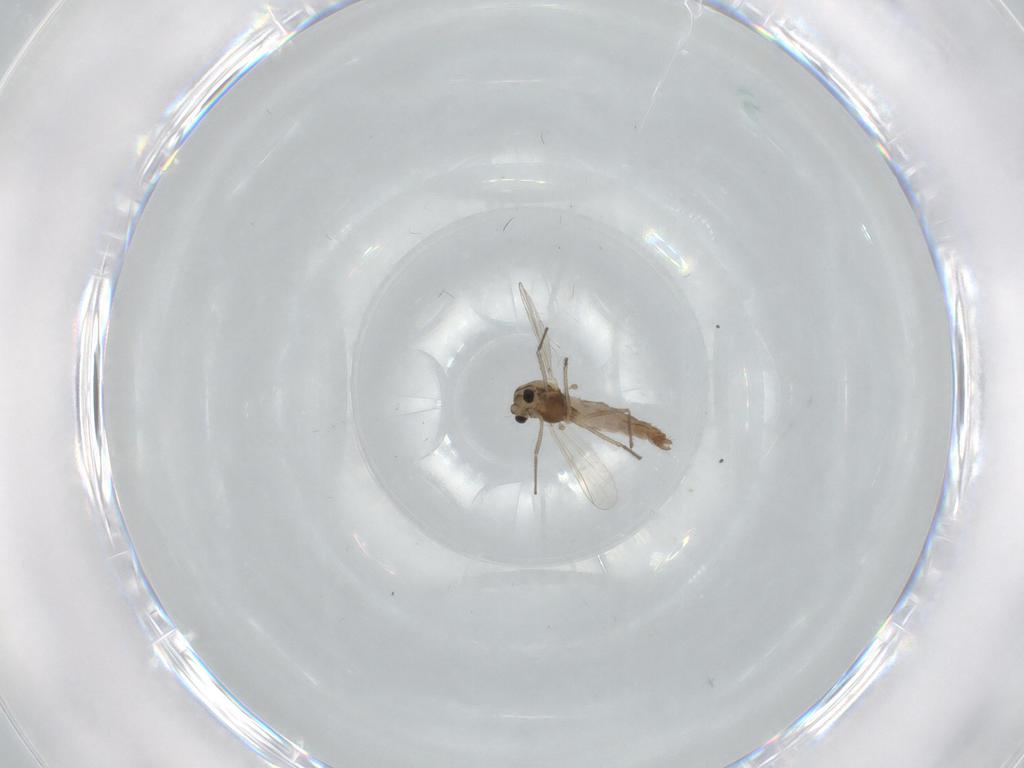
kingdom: Animalia
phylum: Arthropoda
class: Insecta
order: Diptera
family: Chironomidae
